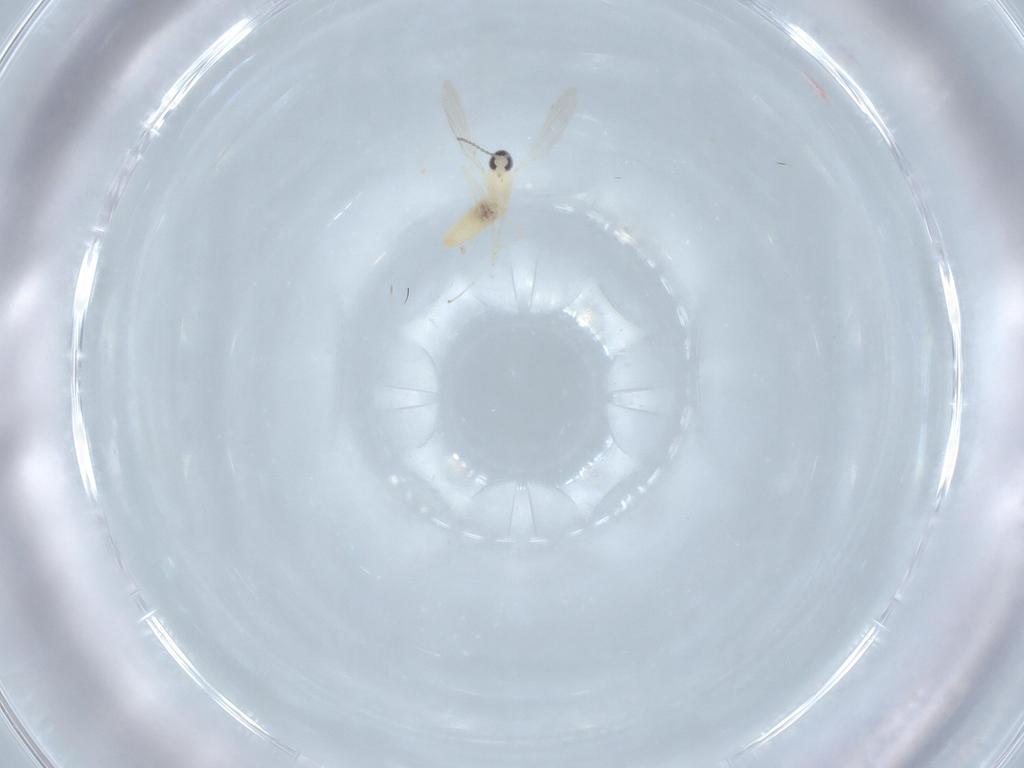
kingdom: Animalia
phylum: Arthropoda
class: Insecta
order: Diptera
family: Cecidomyiidae
